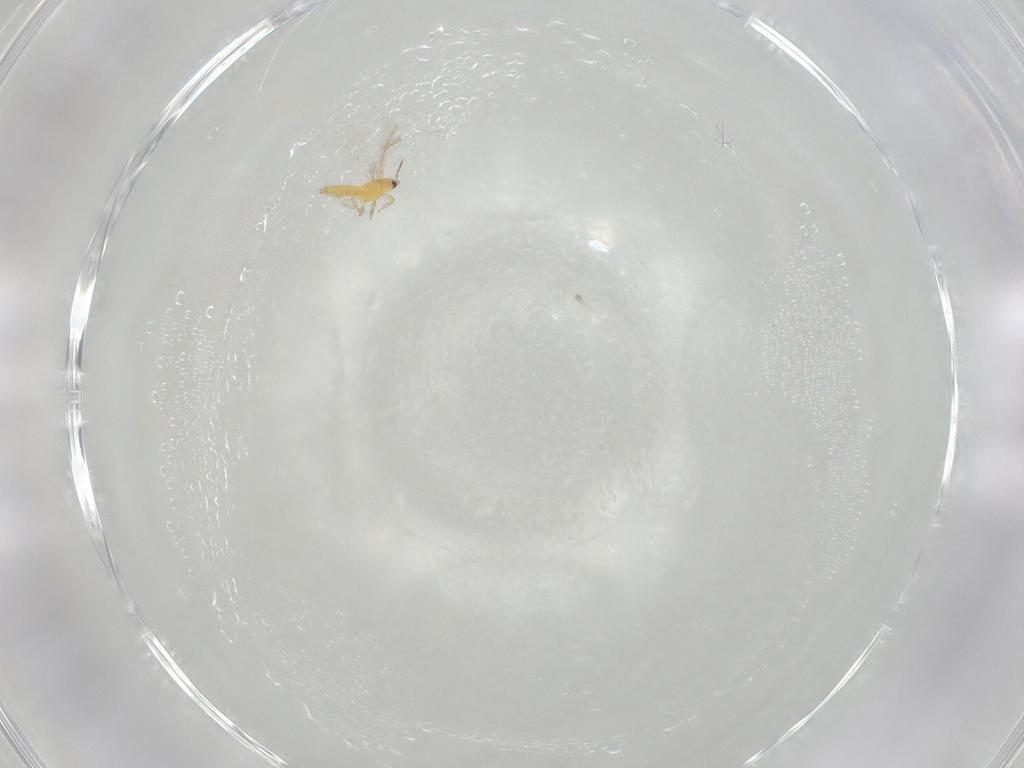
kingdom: Animalia
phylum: Arthropoda
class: Insecta
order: Thysanoptera
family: Thripidae
